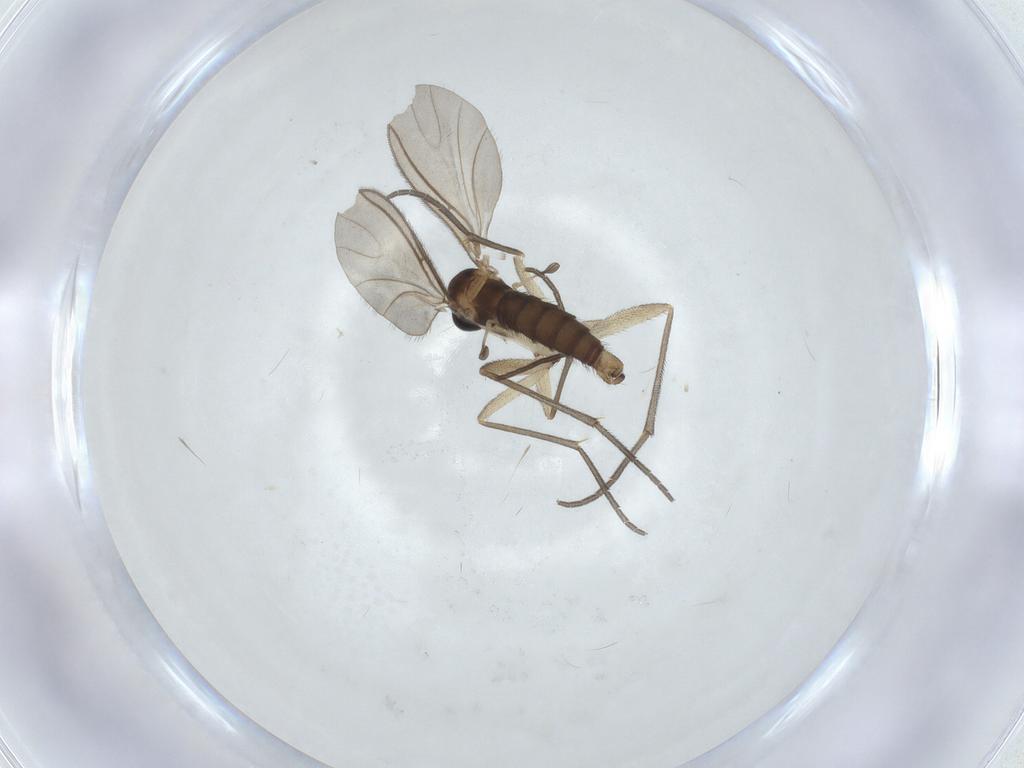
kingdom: Animalia
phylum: Arthropoda
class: Insecta
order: Diptera
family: Sciaridae
